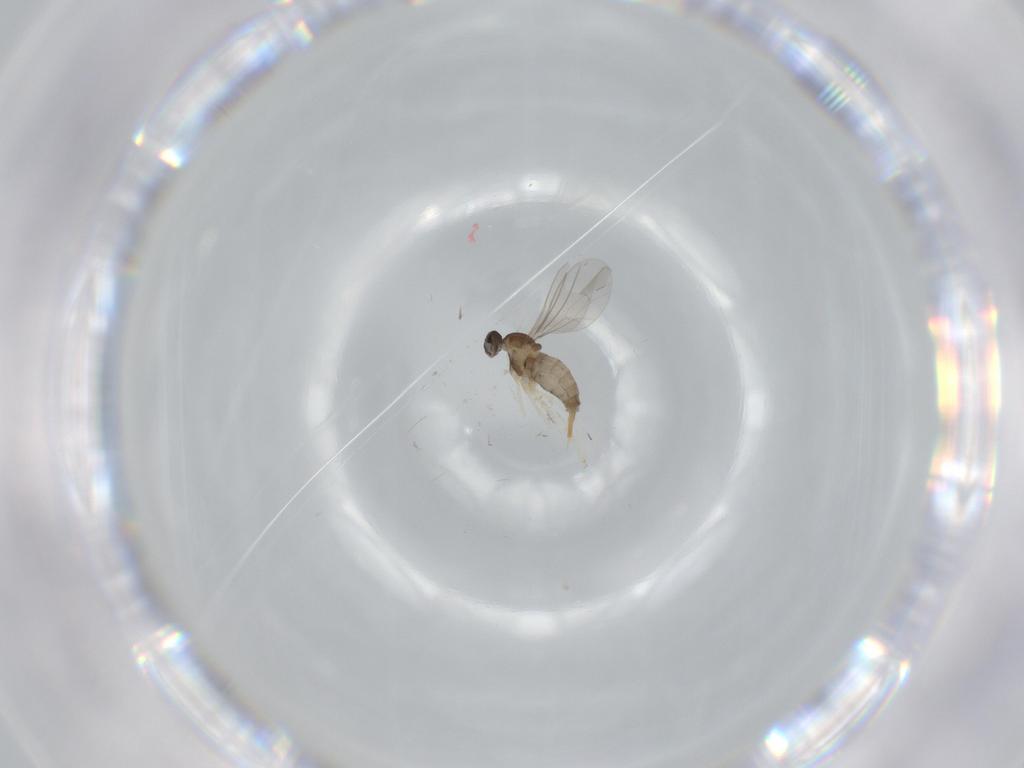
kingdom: Animalia
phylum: Arthropoda
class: Insecta
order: Diptera
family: Cecidomyiidae
